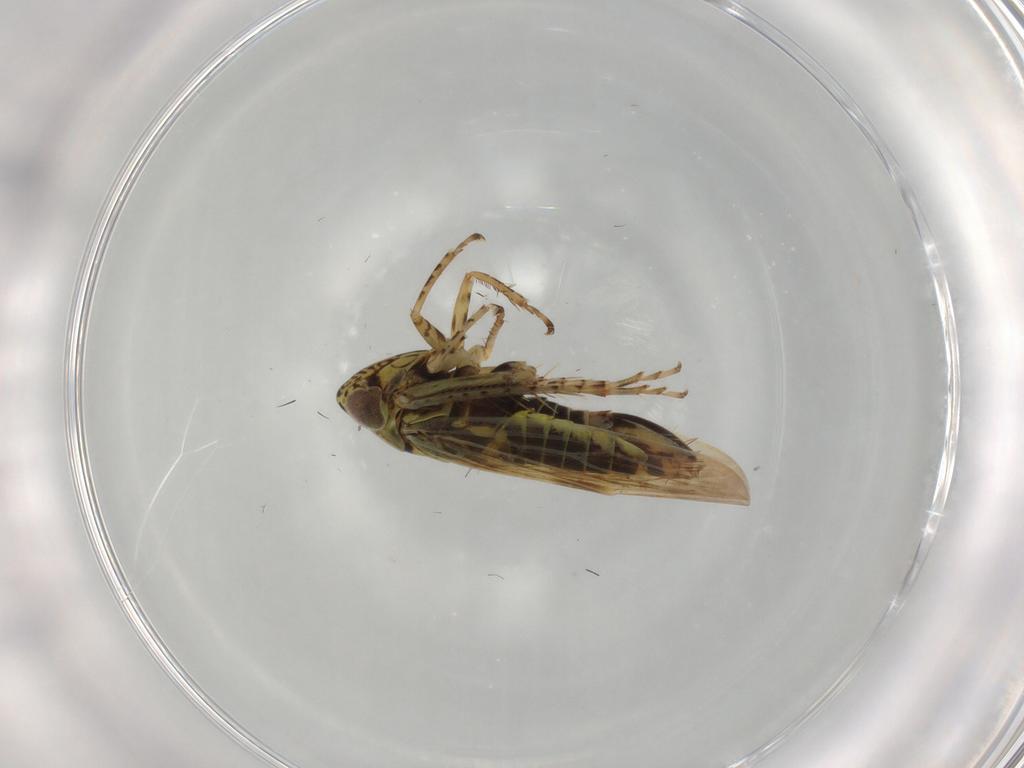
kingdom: Animalia
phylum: Arthropoda
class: Insecta
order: Hemiptera
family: Cicadellidae
